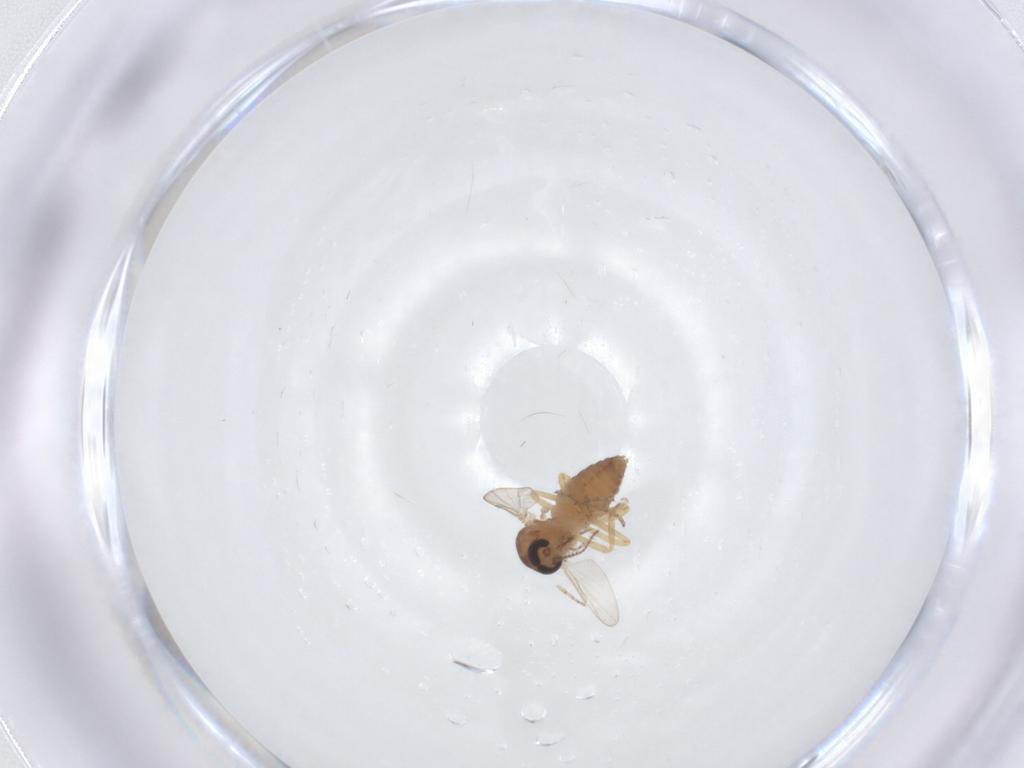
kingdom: Animalia
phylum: Arthropoda
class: Insecta
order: Diptera
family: Ceratopogonidae
